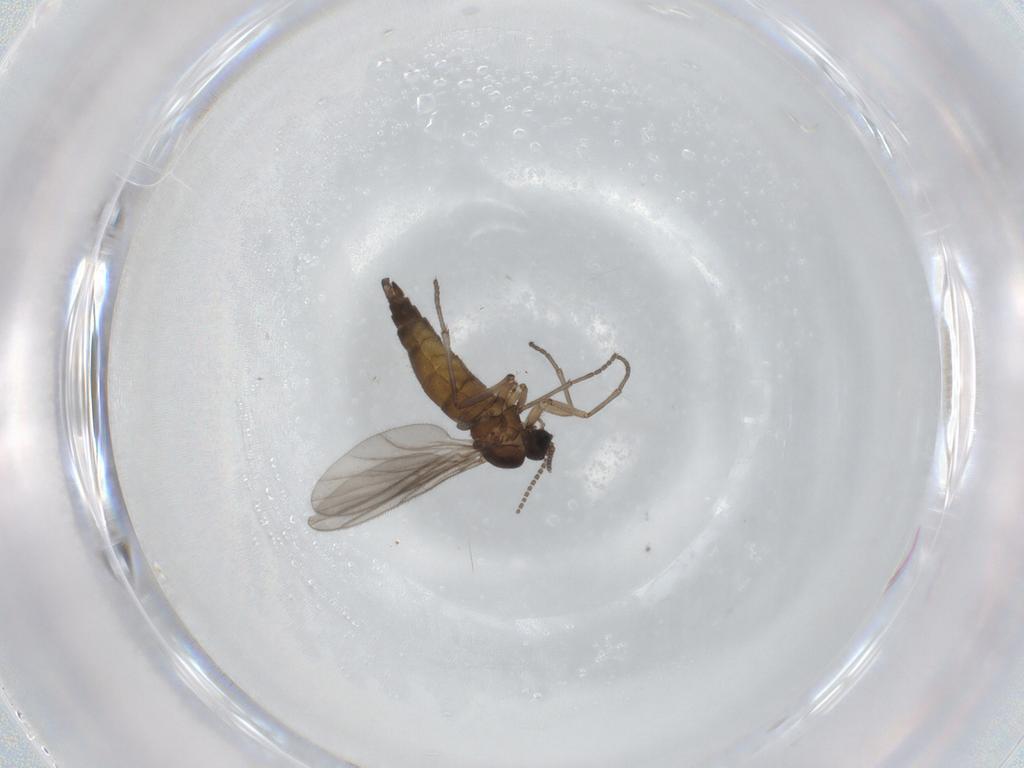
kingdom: Animalia
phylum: Arthropoda
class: Insecta
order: Diptera
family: Sciaridae
